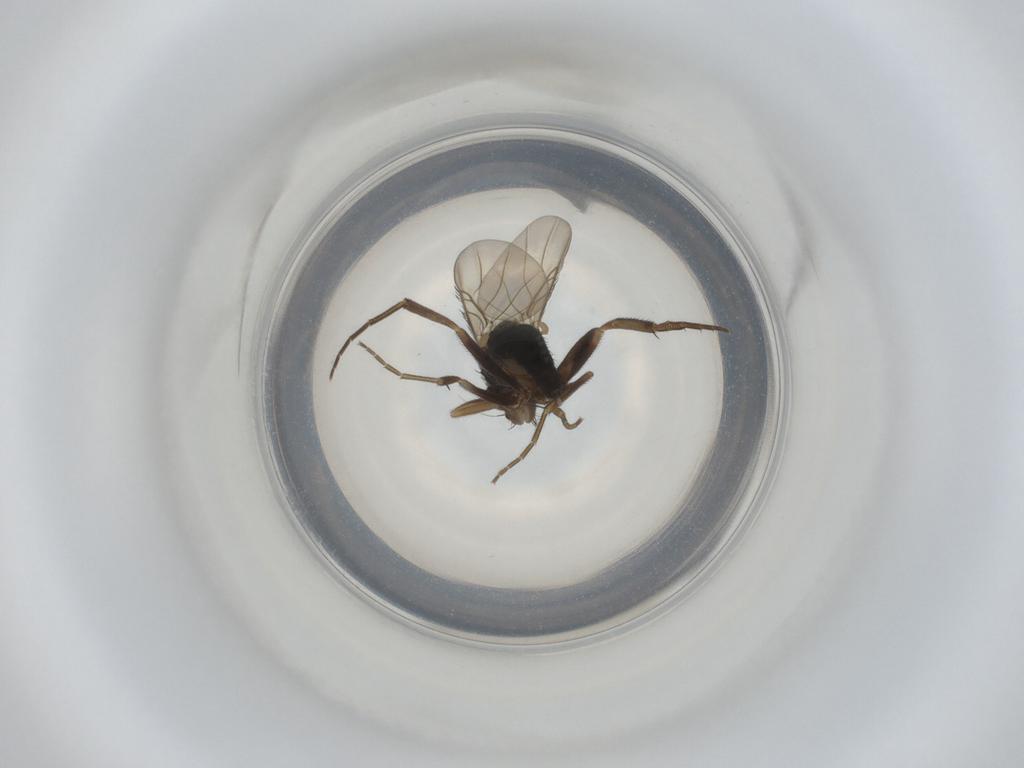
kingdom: Animalia
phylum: Arthropoda
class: Insecta
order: Diptera
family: Phoridae
